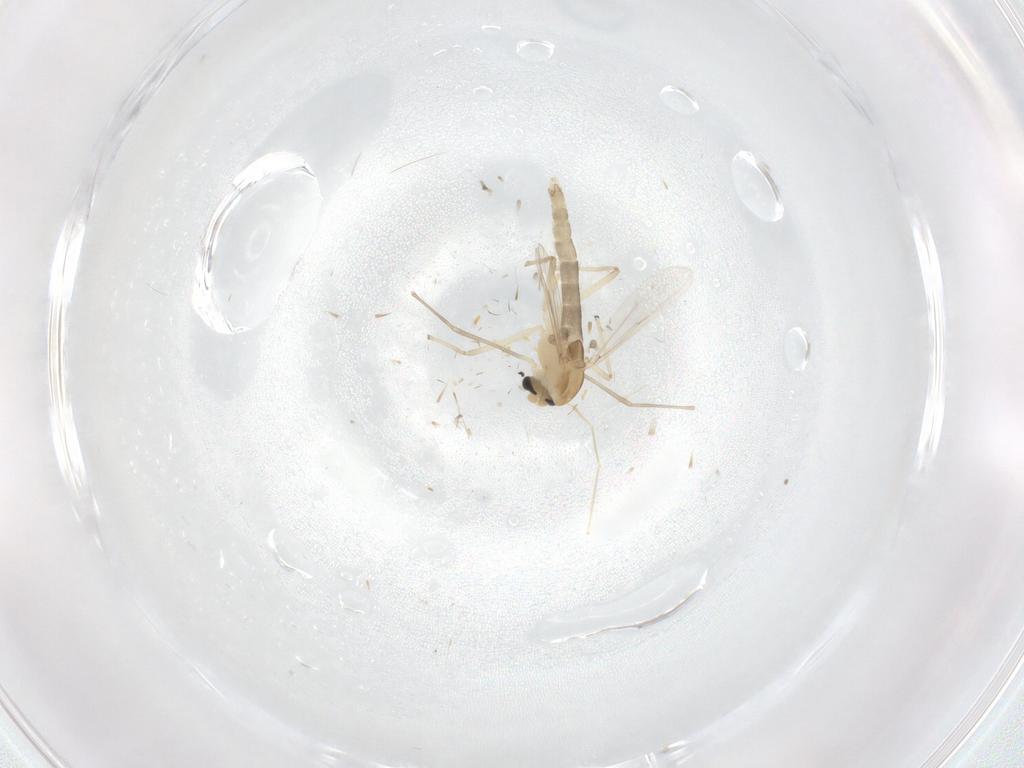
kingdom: Animalia
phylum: Arthropoda
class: Insecta
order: Diptera
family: Chironomidae
